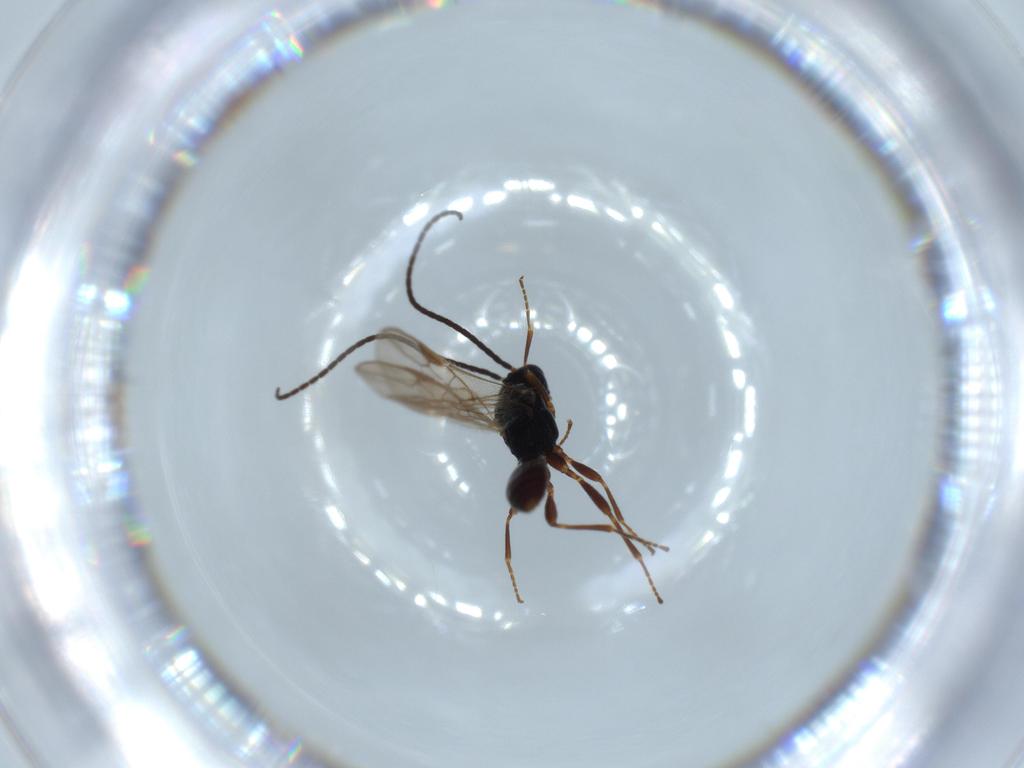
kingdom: Animalia
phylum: Arthropoda
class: Insecta
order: Hymenoptera
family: Braconidae
